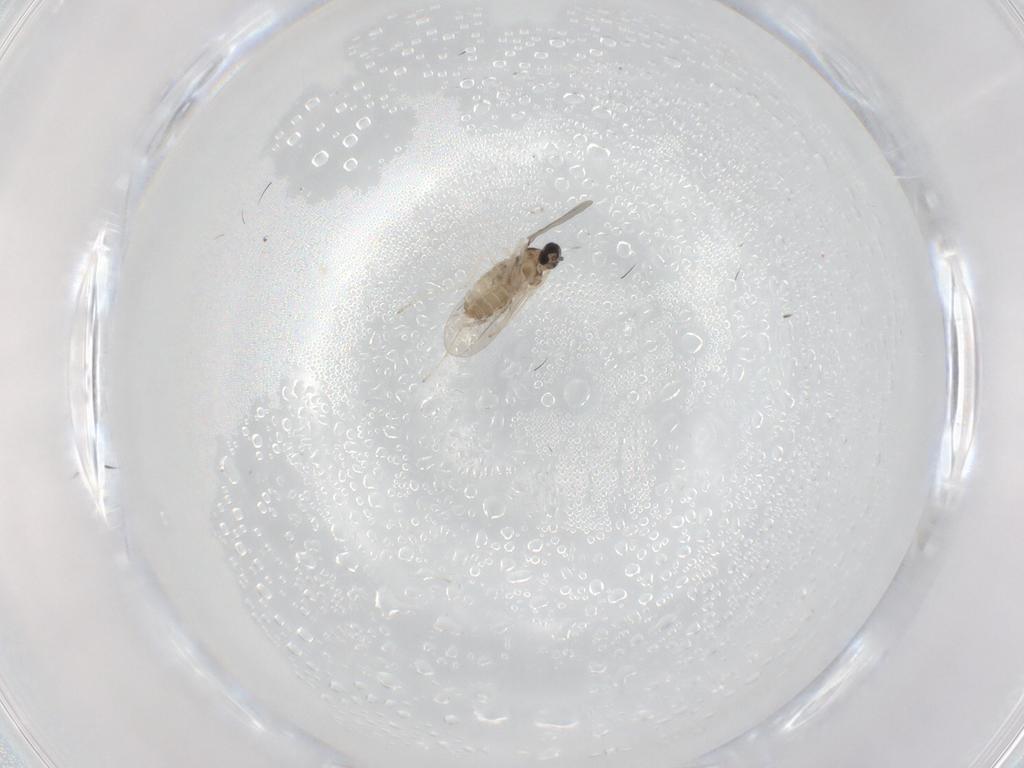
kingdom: Animalia
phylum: Arthropoda
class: Insecta
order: Diptera
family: Cecidomyiidae
